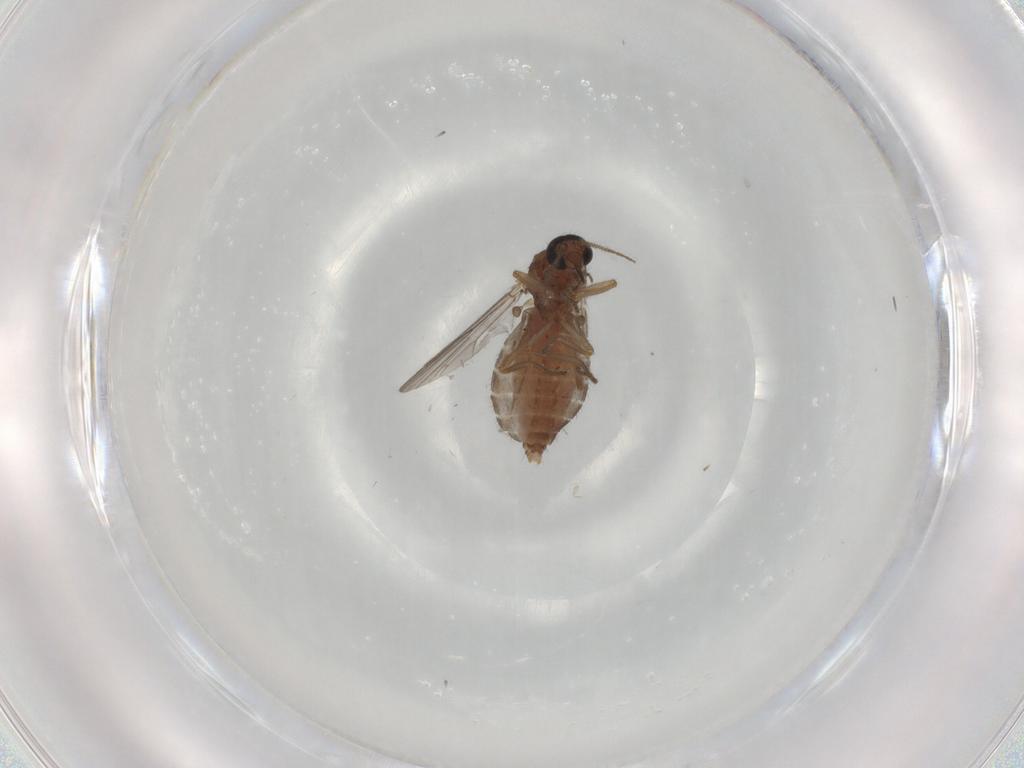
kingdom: Animalia
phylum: Arthropoda
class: Insecta
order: Diptera
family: Ceratopogonidae
